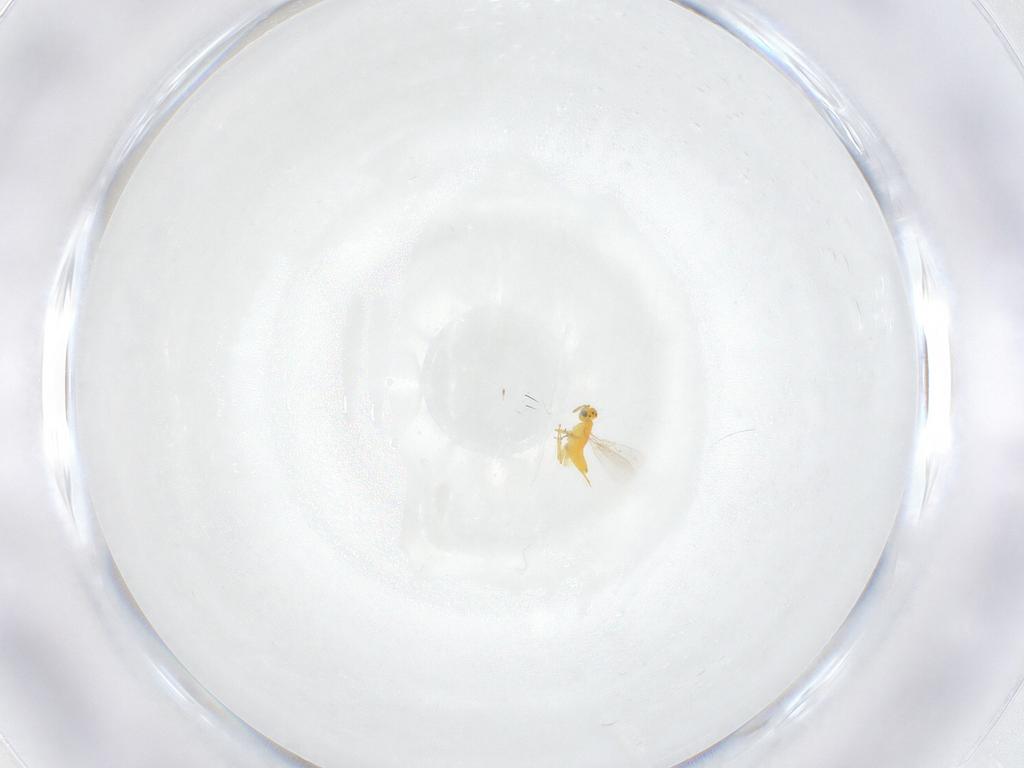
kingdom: Animalia
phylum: Arthropoda
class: Insecta
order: Hymenoptera
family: Aphelinidae
